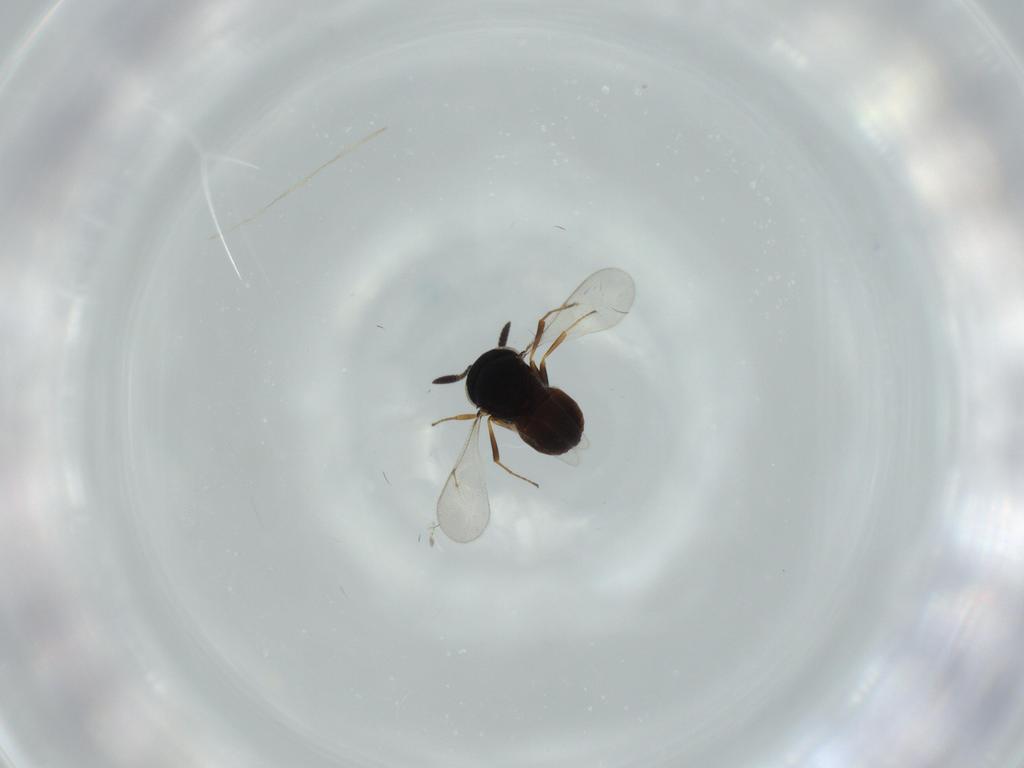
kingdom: Animalia
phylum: Arthropoda
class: Insecta
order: Hymenoptera
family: Scelionidae
